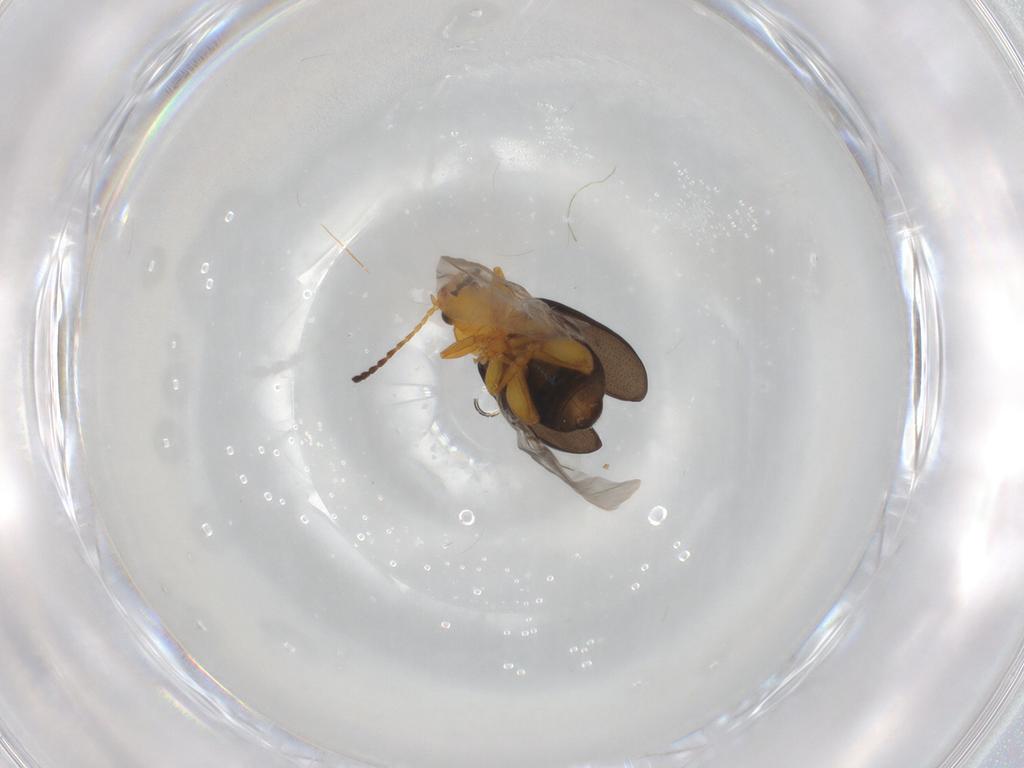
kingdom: Animalia
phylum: Arthropoda
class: Insecta
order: Coleoptera
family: Chrysomelidae
